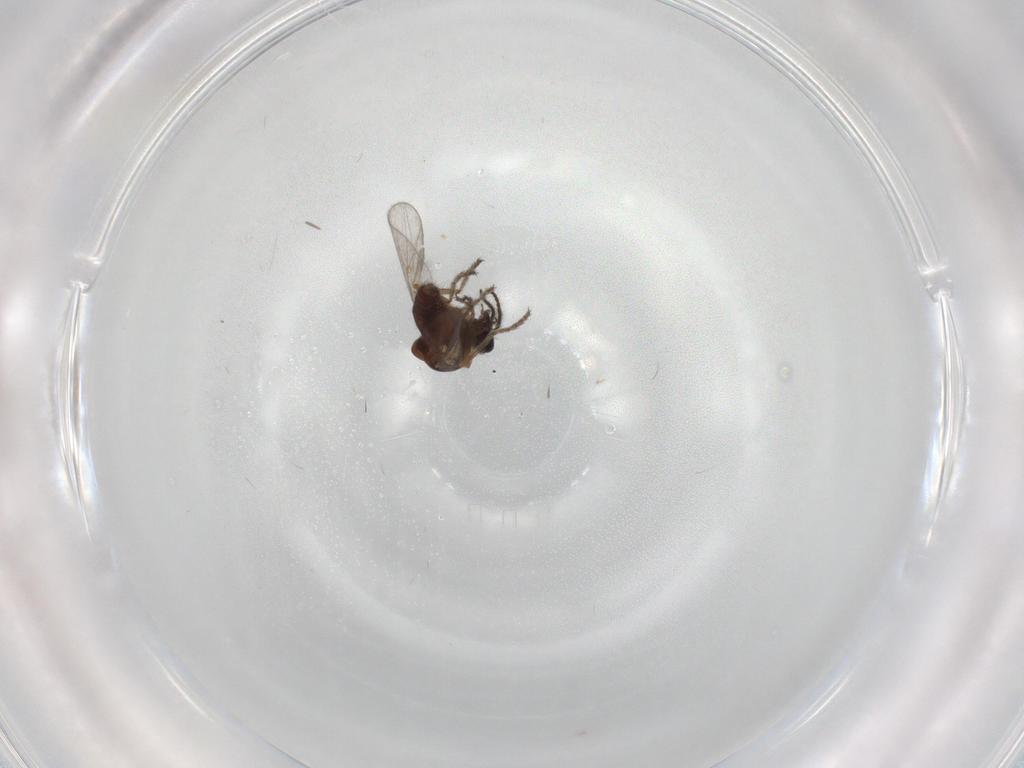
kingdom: Animalia
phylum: Arthropoda
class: Insecta
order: Diptera
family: Ceratopogonidae
